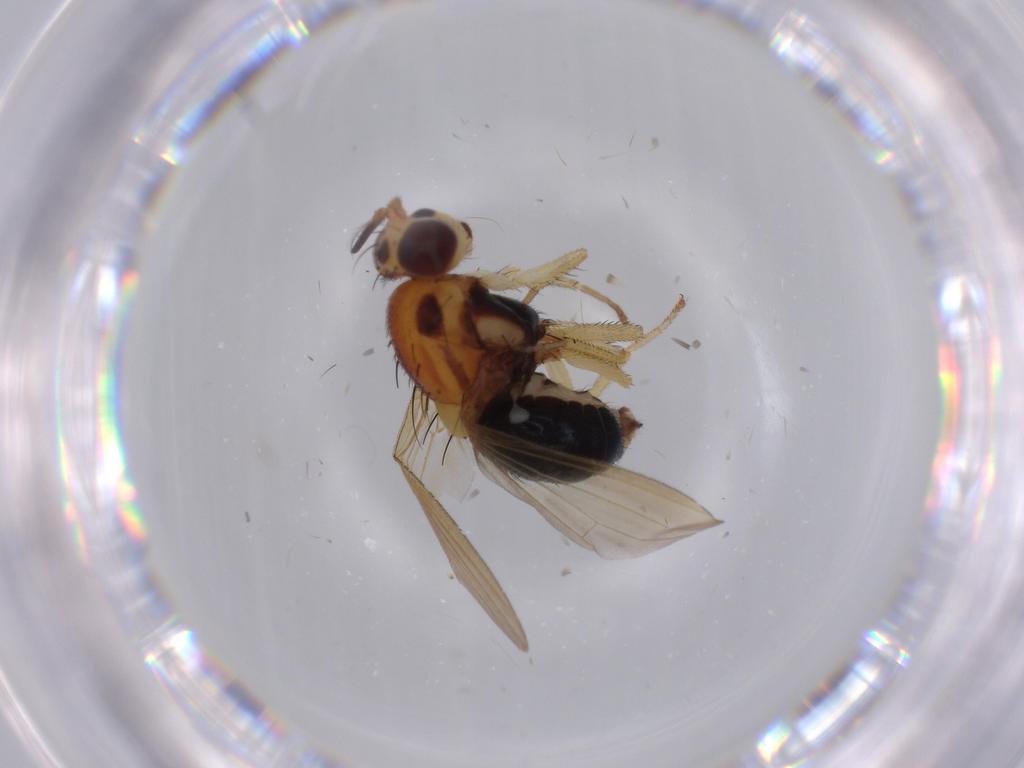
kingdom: Animalia
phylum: Arthropoda
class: Insecta
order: Diptera
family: Lauxaniidae
